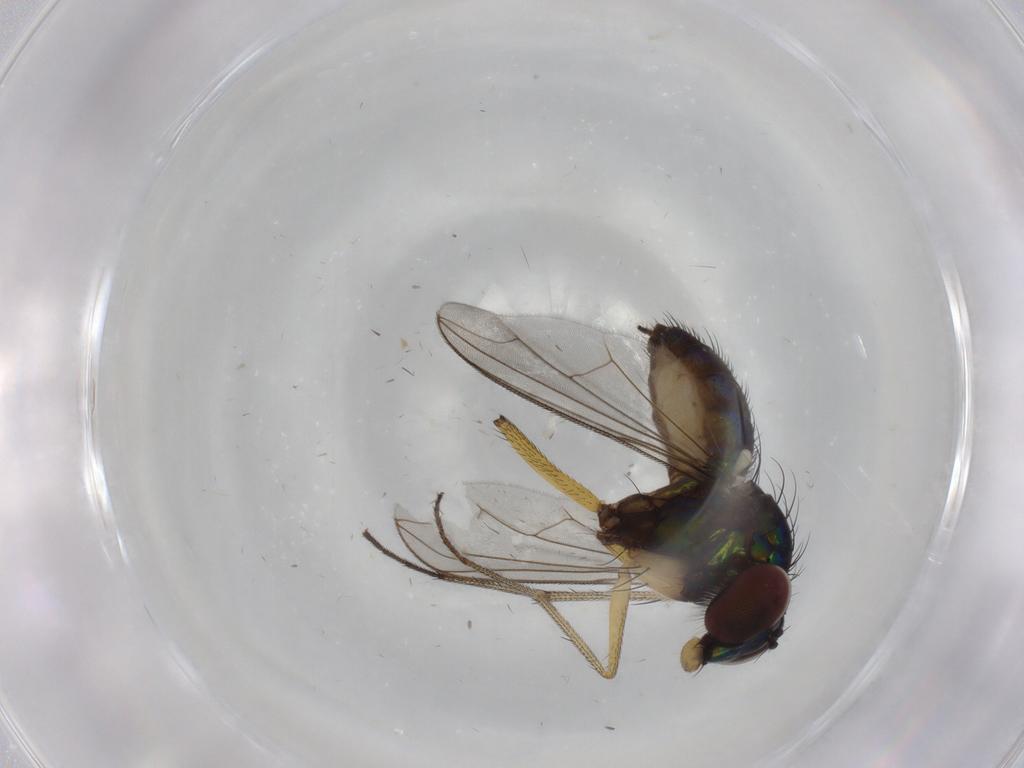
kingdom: Animalia
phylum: Arthropoda
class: Insecta
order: Diptera
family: Dolichopodidae
